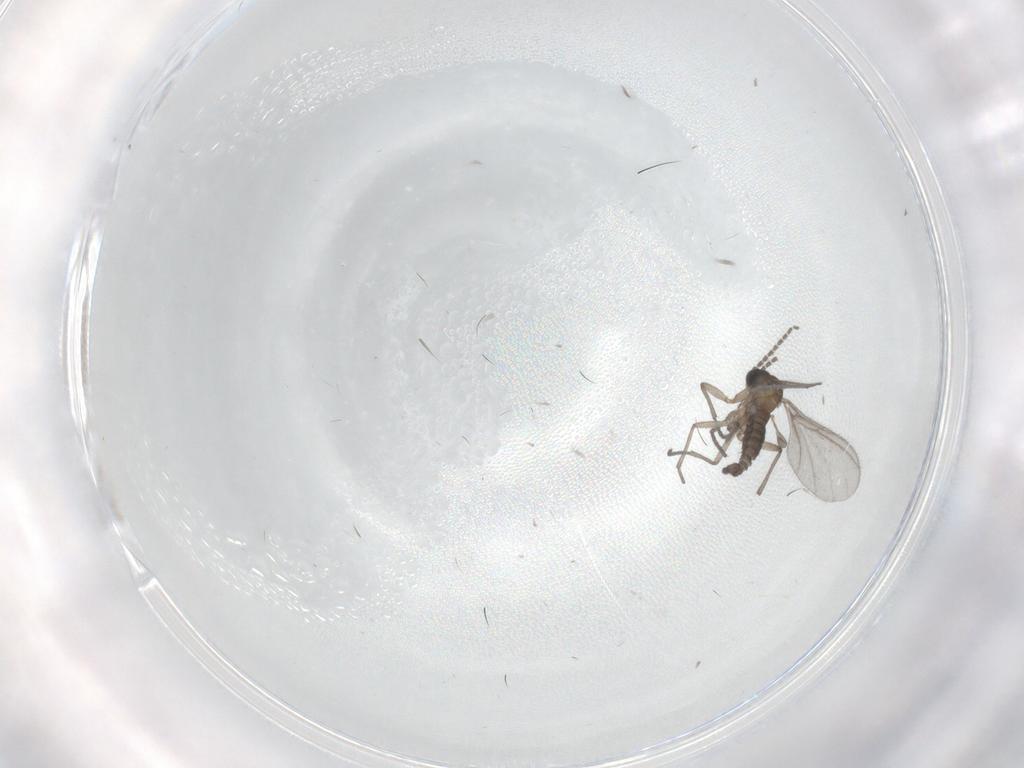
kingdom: Animalia
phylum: Arthropoda
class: Insecta
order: Diptera
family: Sciaridae
